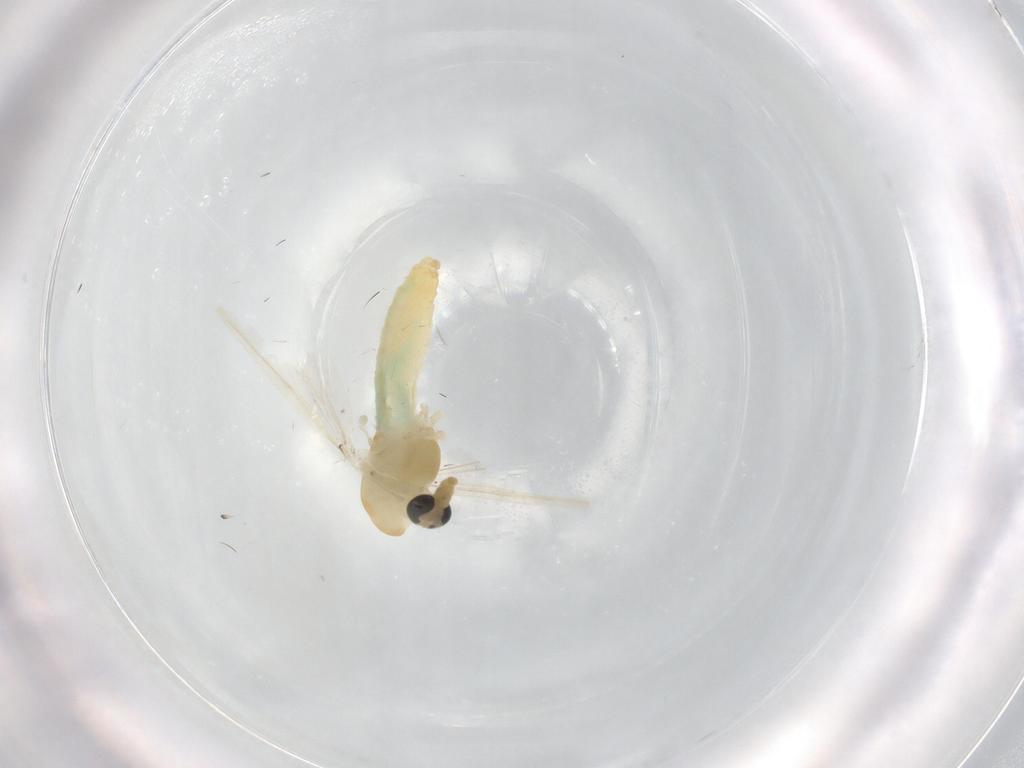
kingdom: Animalia
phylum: Arthropoda
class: Insecta
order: Diptera
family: Chironomidae
